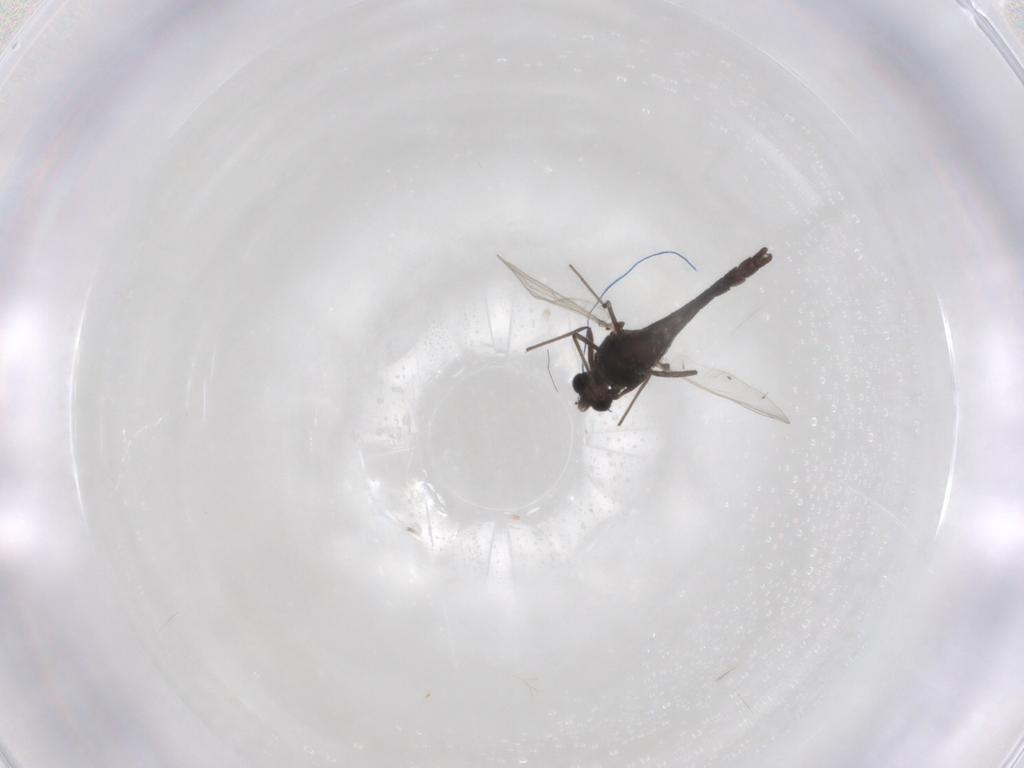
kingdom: Animalia
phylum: Arthropoda
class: Insecta
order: Diptera
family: Chironomidae
